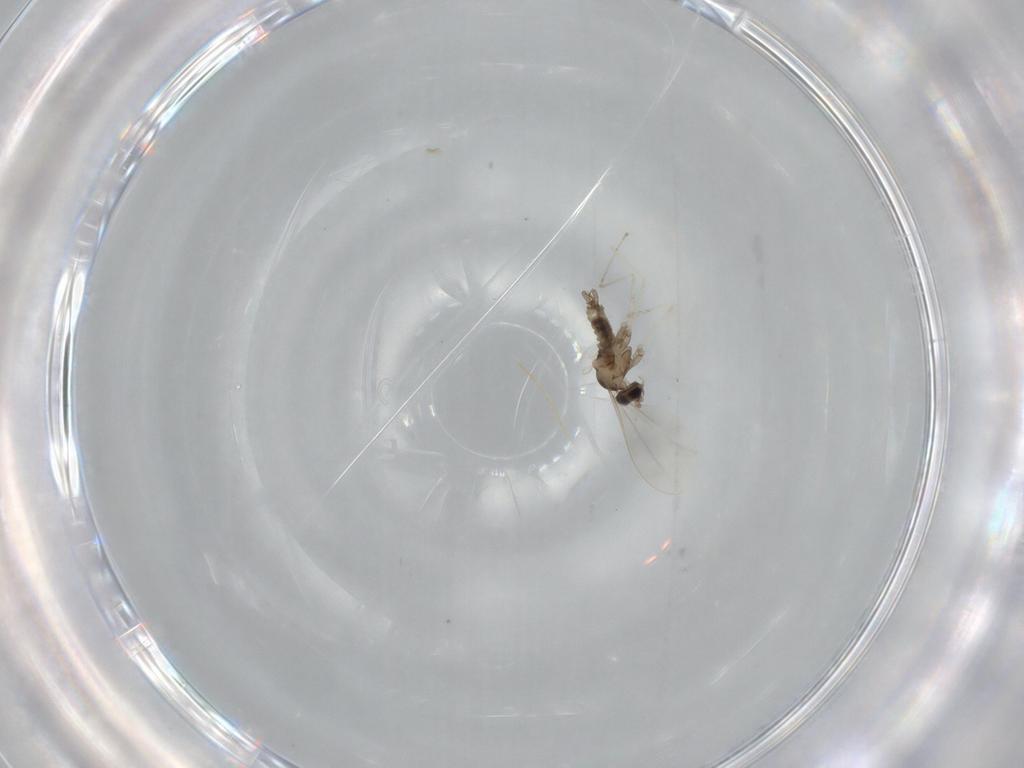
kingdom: Animalia
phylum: Arthropoda
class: Insecta
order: Diptera
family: Cecidomyiidae
